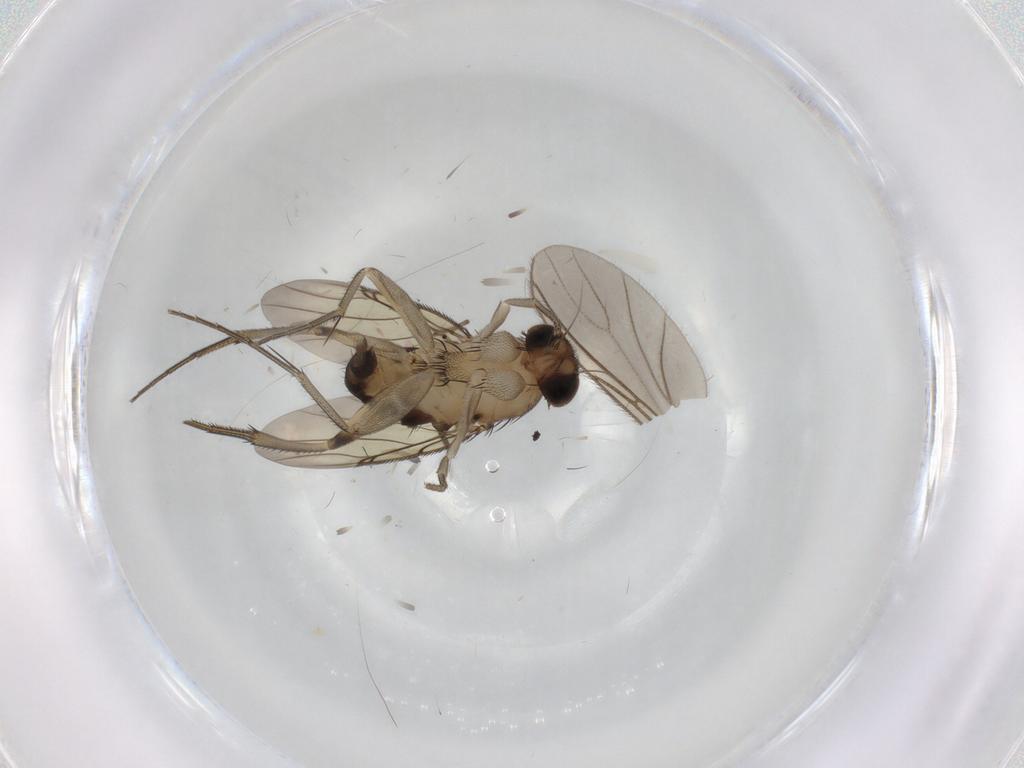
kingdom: Animalia
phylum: Arthropoda
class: Insecta
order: Diptera
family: Phoridae
